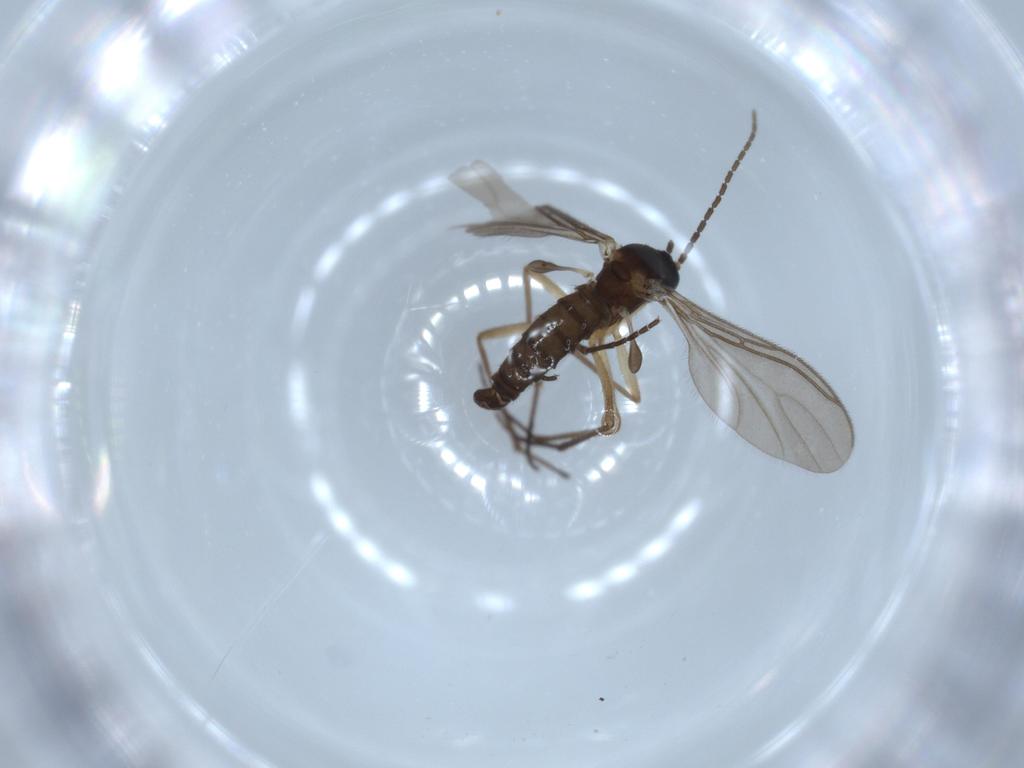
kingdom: Animalia
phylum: Arthropoda
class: Insecta
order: Diptera
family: Sciaridae
